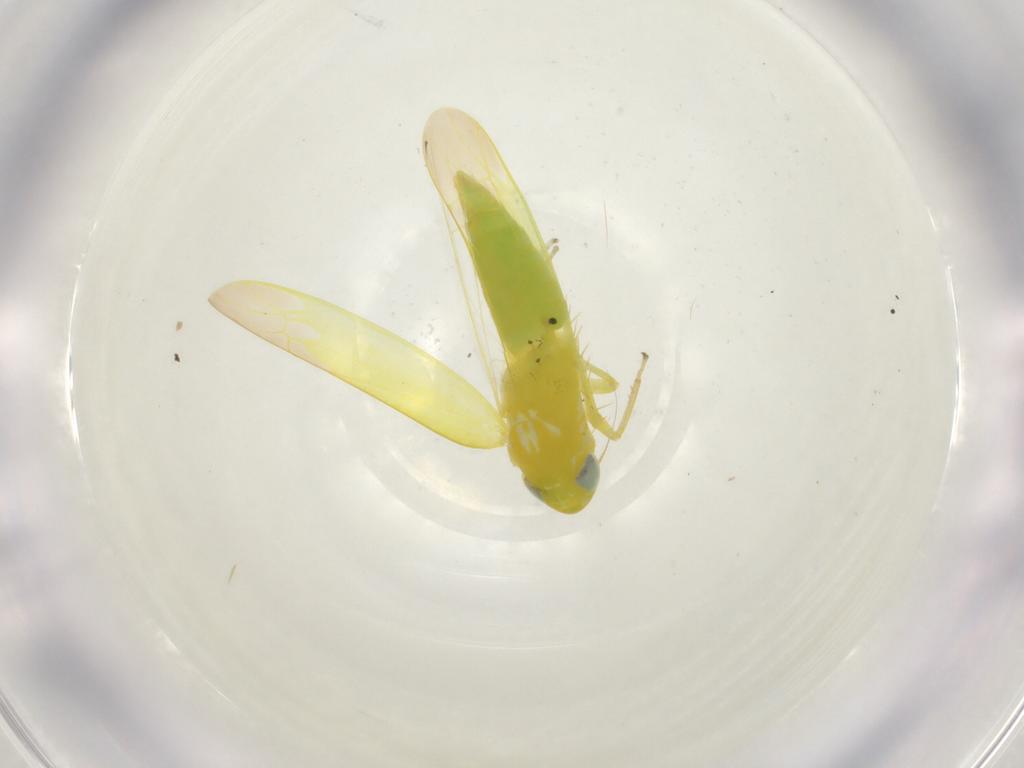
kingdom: Animalia
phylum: Arthropoda
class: Insecta
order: Hemiptera
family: Cicadellidae
